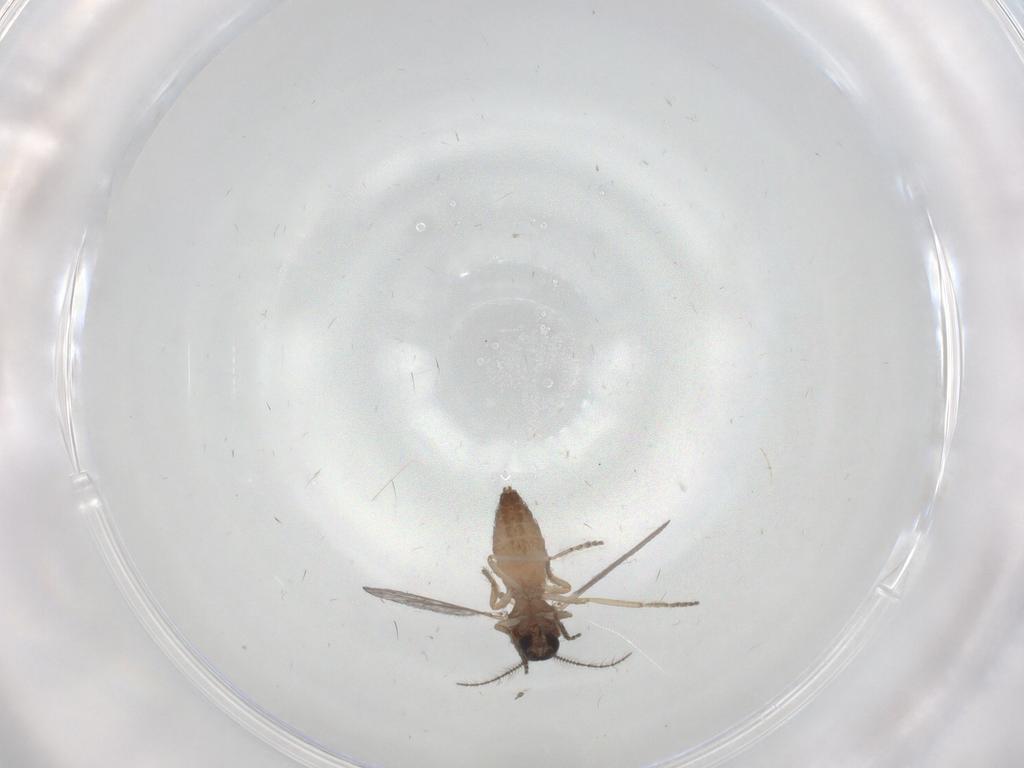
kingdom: Animalia
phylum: Arthropoda
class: Insecta
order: Diptera
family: Ceratopogonidae
